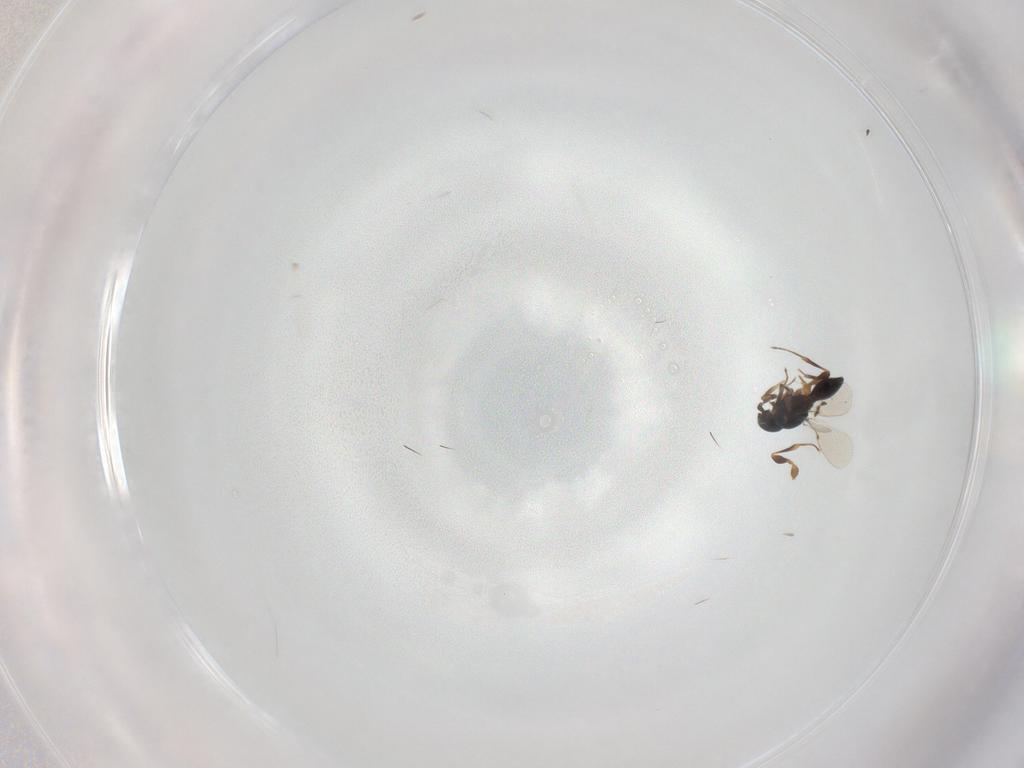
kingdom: Animalia
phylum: Arthropoda
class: Insecta
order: Hymenoptera
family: Platygastridae
